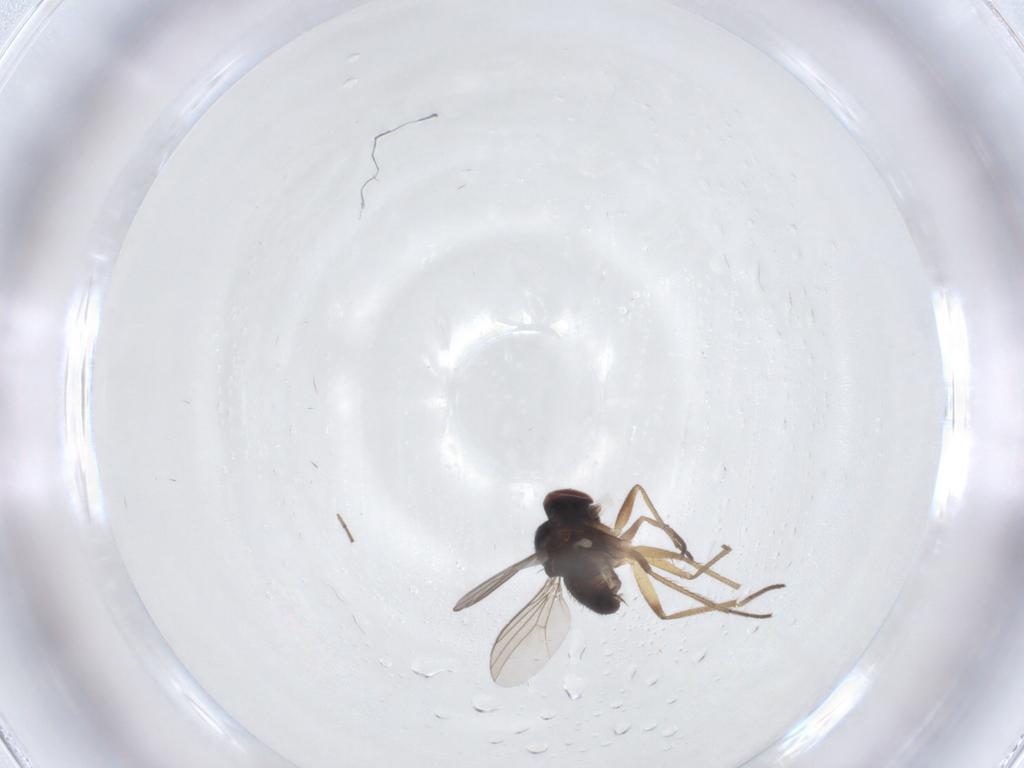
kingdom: Animalia
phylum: Arthropoda
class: Insecta
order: Diptera
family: Dolichopodidae
